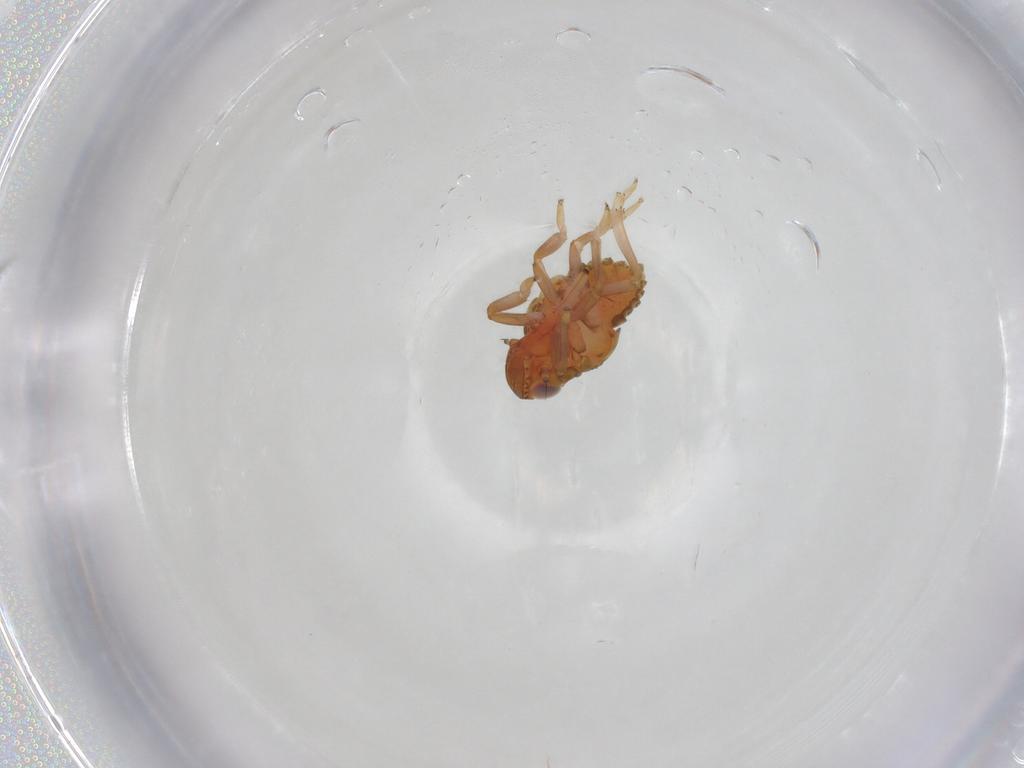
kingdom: Animalia
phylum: Arthropoda
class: Insecta
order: Hemiptera
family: Issidae
